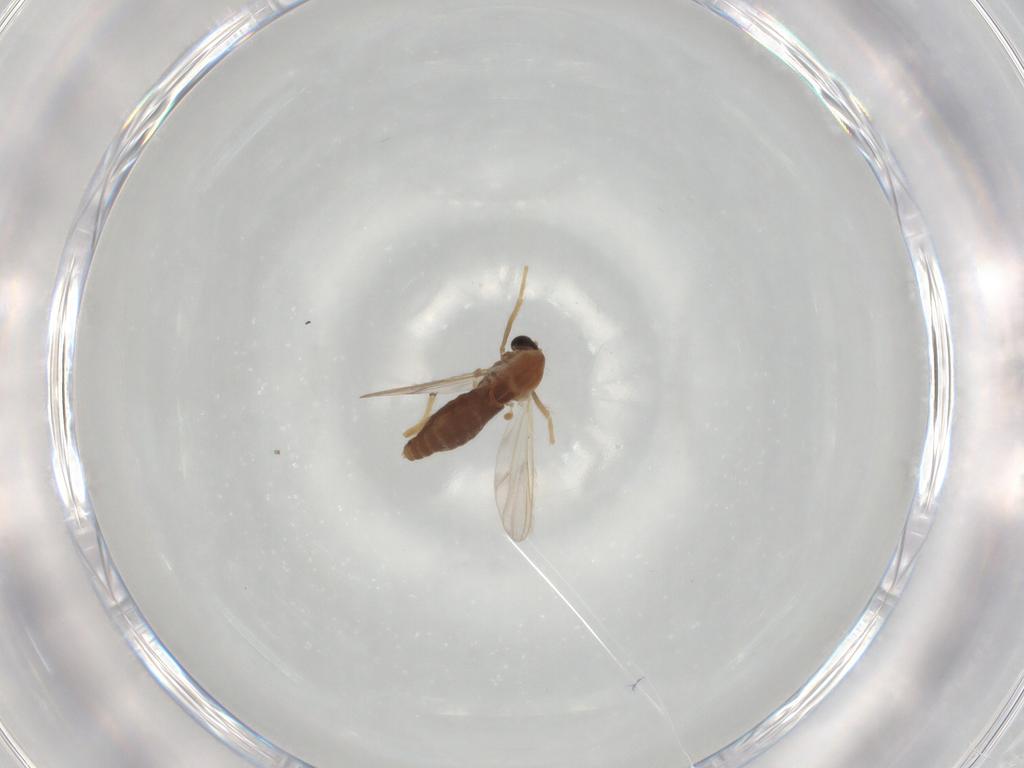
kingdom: Animalia
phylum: Arthropoda
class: Insecta
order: Diptera
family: Chironomidae
